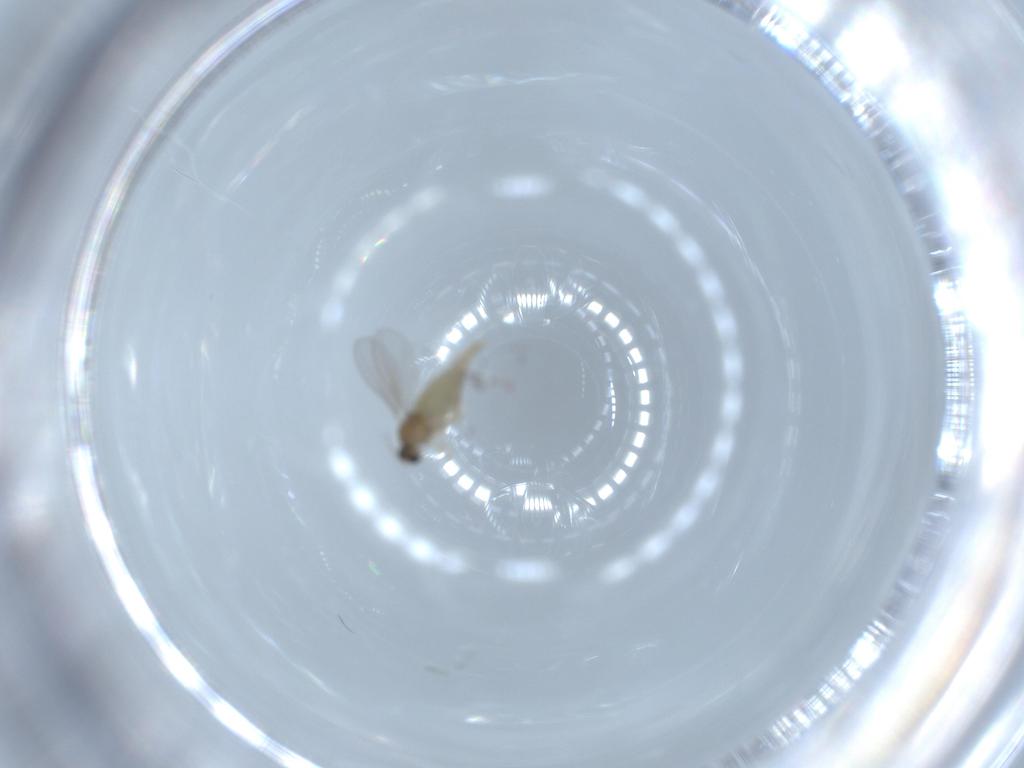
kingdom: Animalia
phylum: Arthropoda
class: Insecta
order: Diptera
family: Cecidomyiidae
